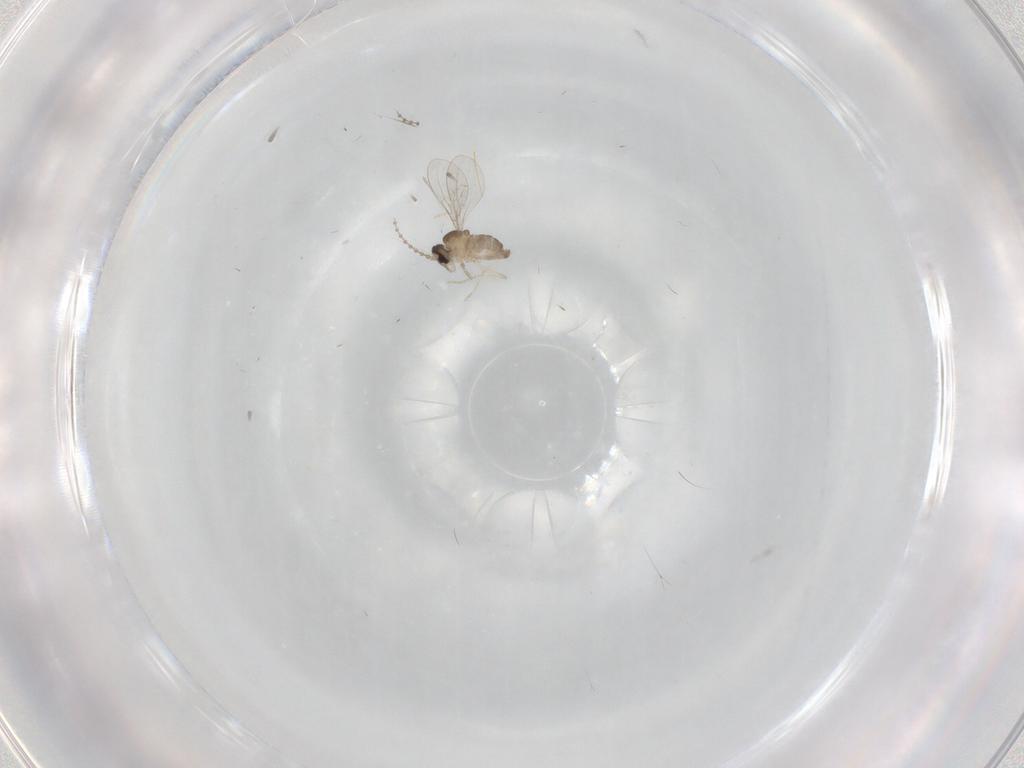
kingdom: Animalia
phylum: Arthropoda
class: Insecta
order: Diptera
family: Cecidomyiidae
